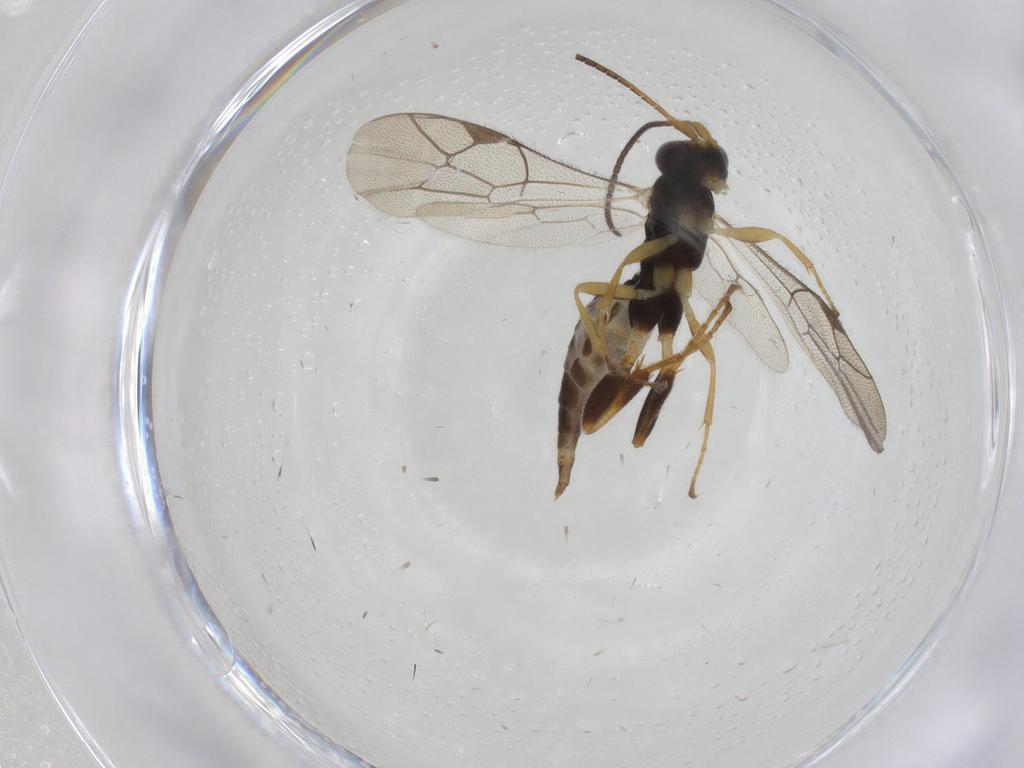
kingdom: Animalia
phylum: Arthropoda
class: Insecta
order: Hymenoptera
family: Ichneumonidae
